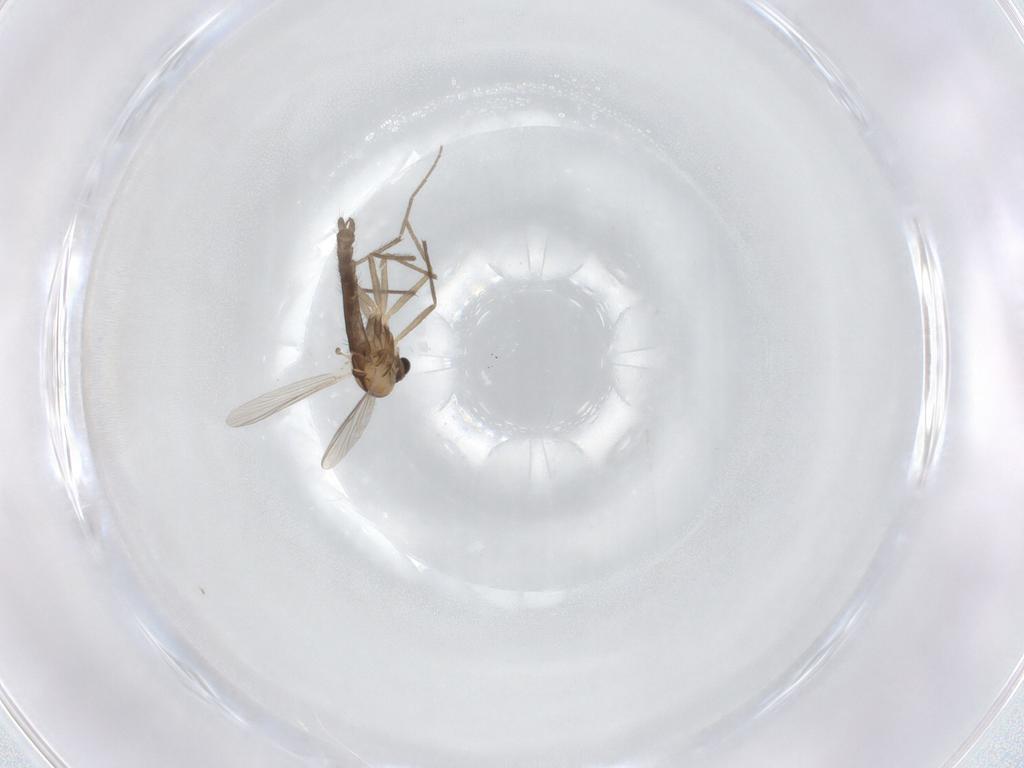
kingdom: Animalia
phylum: Arthropoda
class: Insecta
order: Diptera
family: Chironomidae
